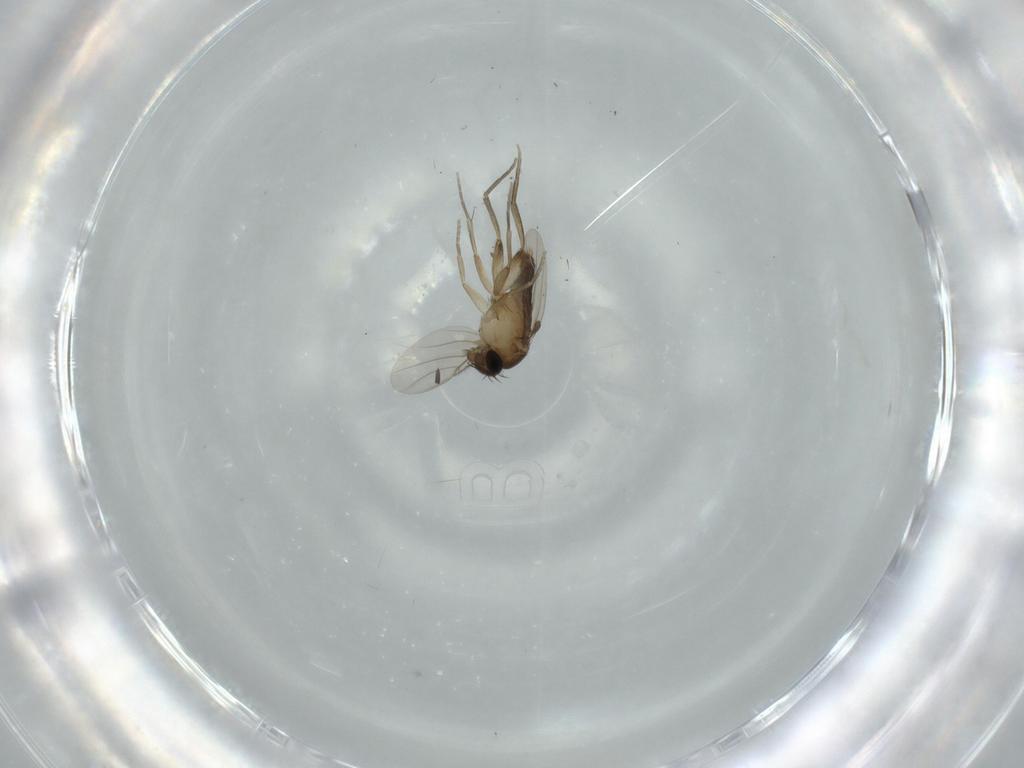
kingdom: Animalia
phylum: Arthropoda
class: Insecta
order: Diptera
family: Phoridae
